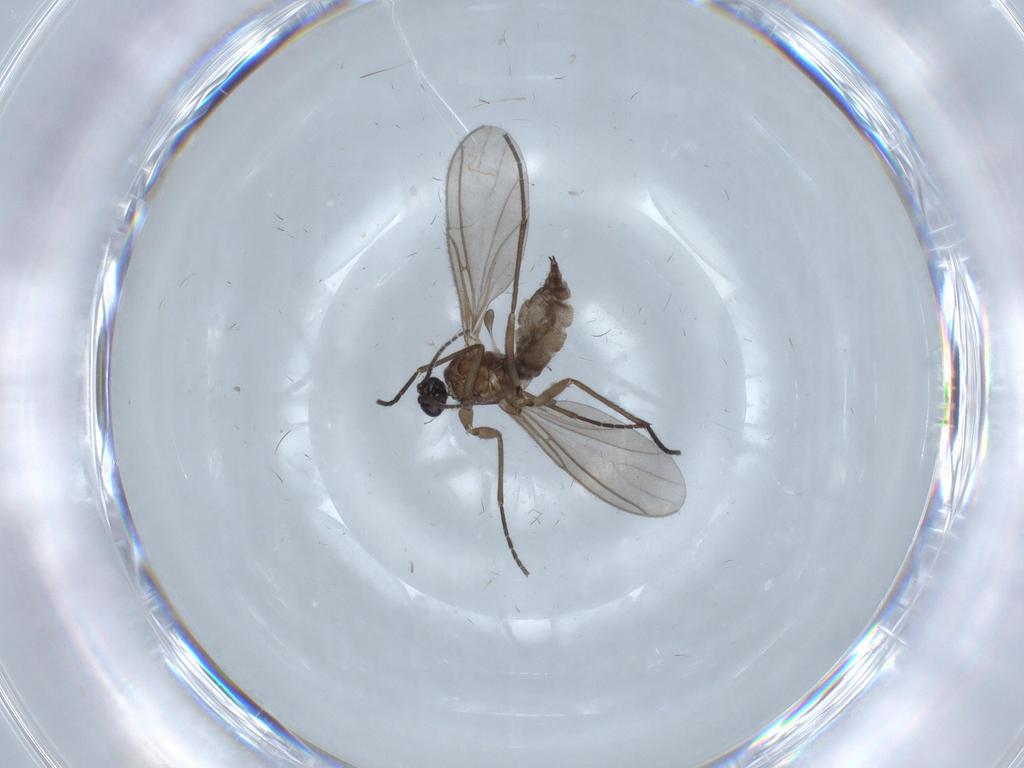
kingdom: Animalia
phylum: Arthropoda
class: Insecta
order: Diptera
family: Sciaridae
